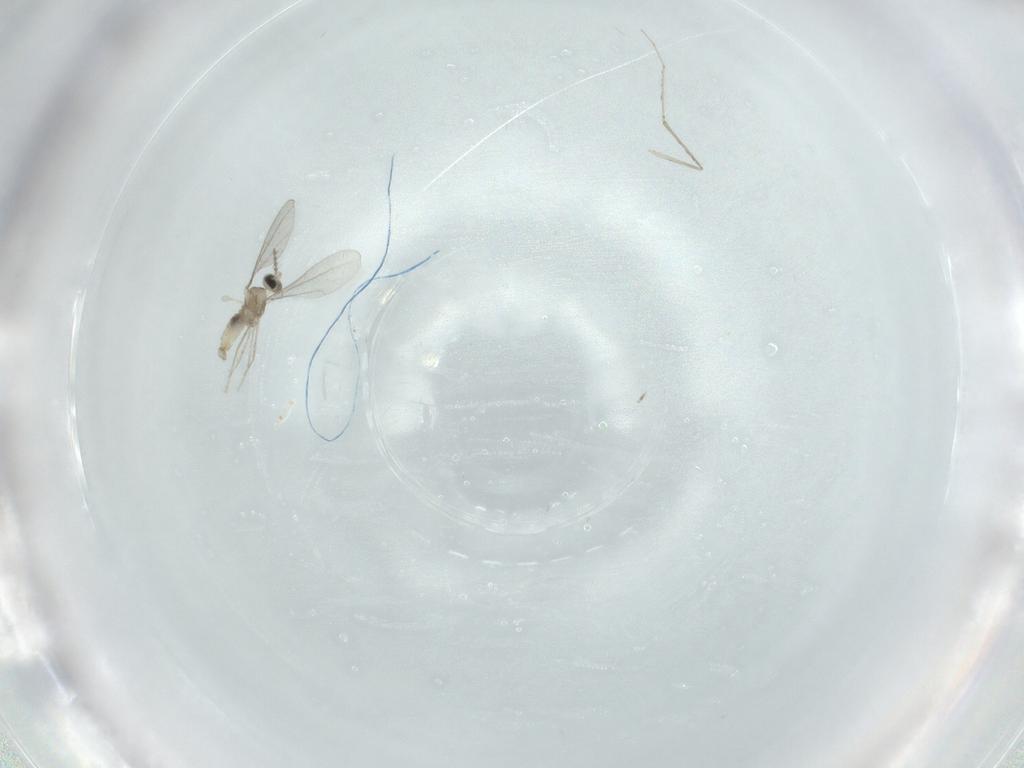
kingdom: Animalia
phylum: Arthropoda
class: Insecta
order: Diptera
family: Cecidomyiidae
